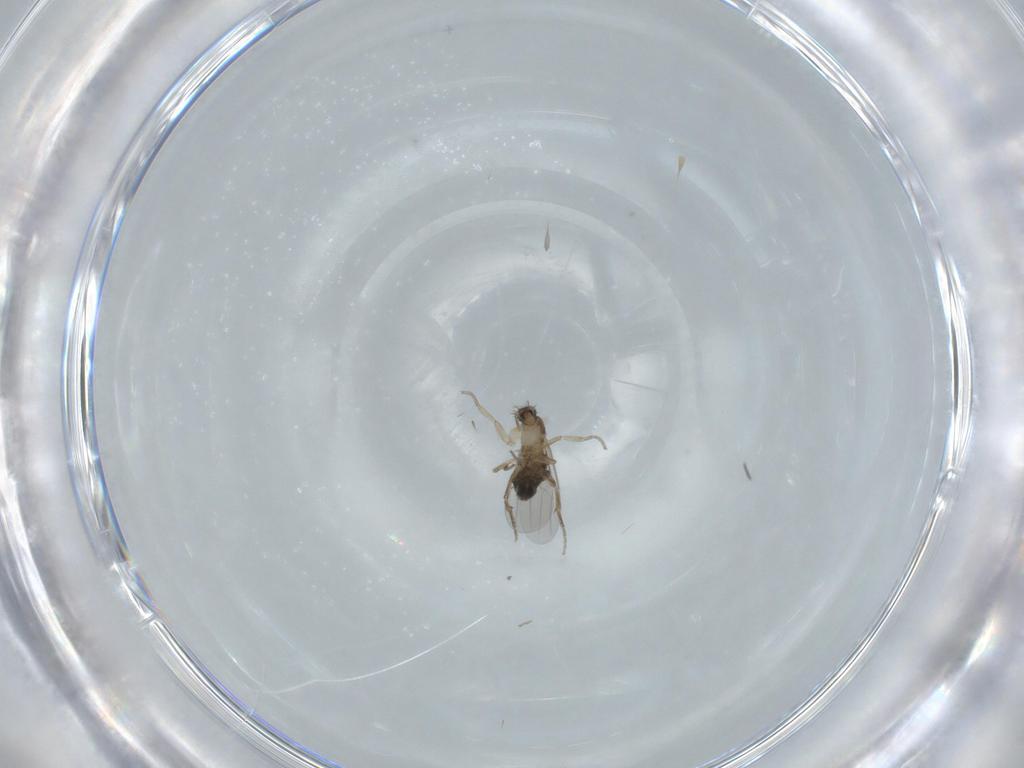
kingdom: Animalia
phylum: Arthropoda
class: Insecta
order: Diptera
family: Phoridae
